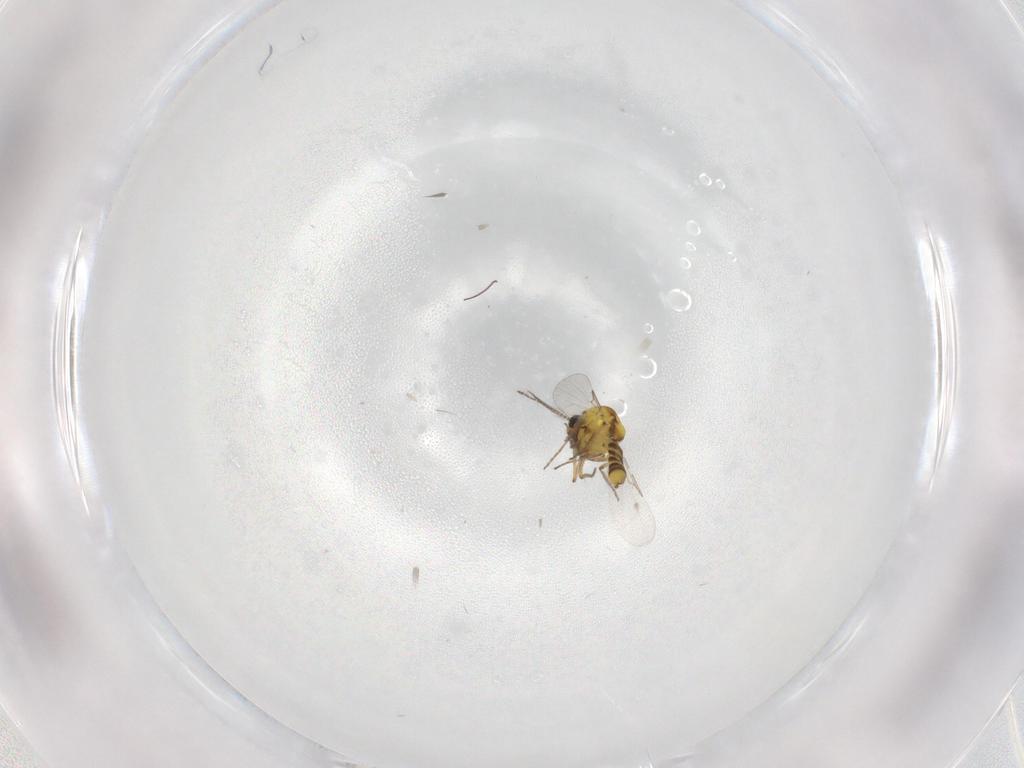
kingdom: Animalia
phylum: Arthropoda
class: Insecta
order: Diptera
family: Ceratopogonidae
